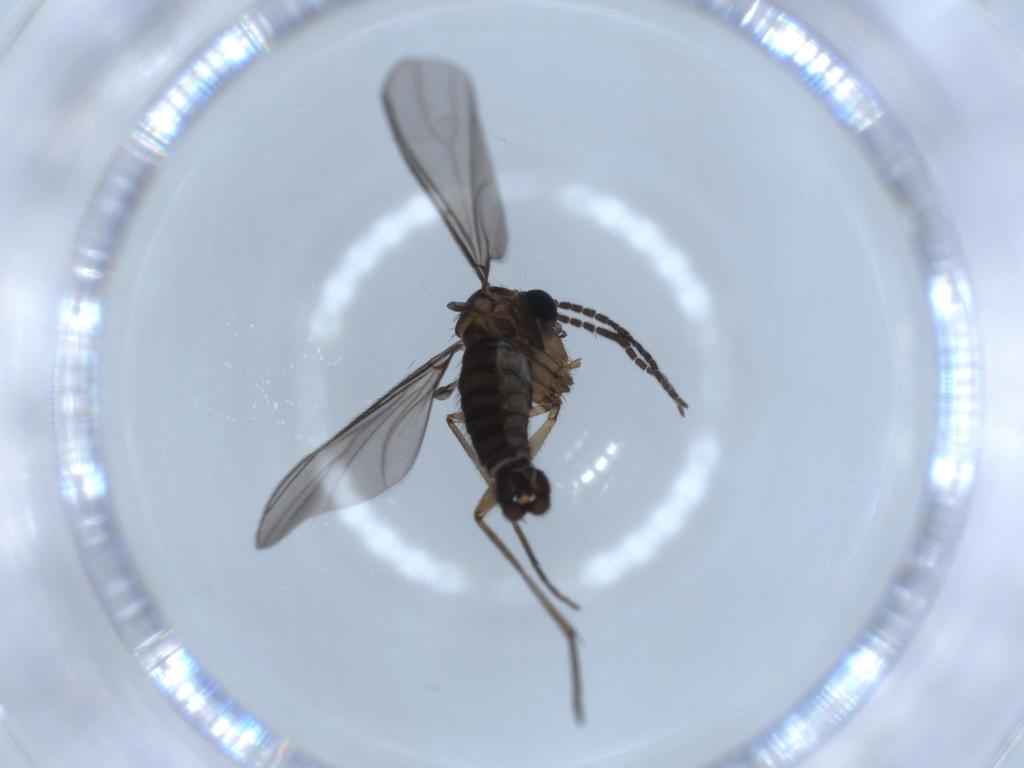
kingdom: Animalia
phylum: Arthropoda
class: Insecta
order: Diptera
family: Sciaridae
